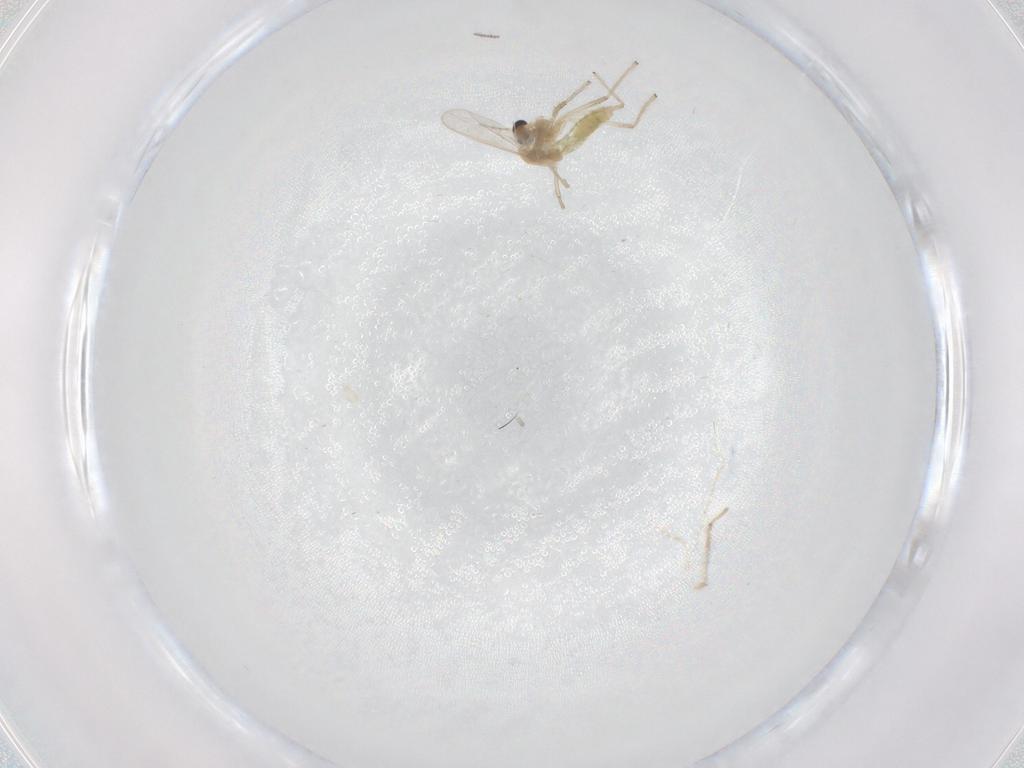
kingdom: Animalia
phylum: Arthropoda
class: Insecta
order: Diptera
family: Chironomidae
